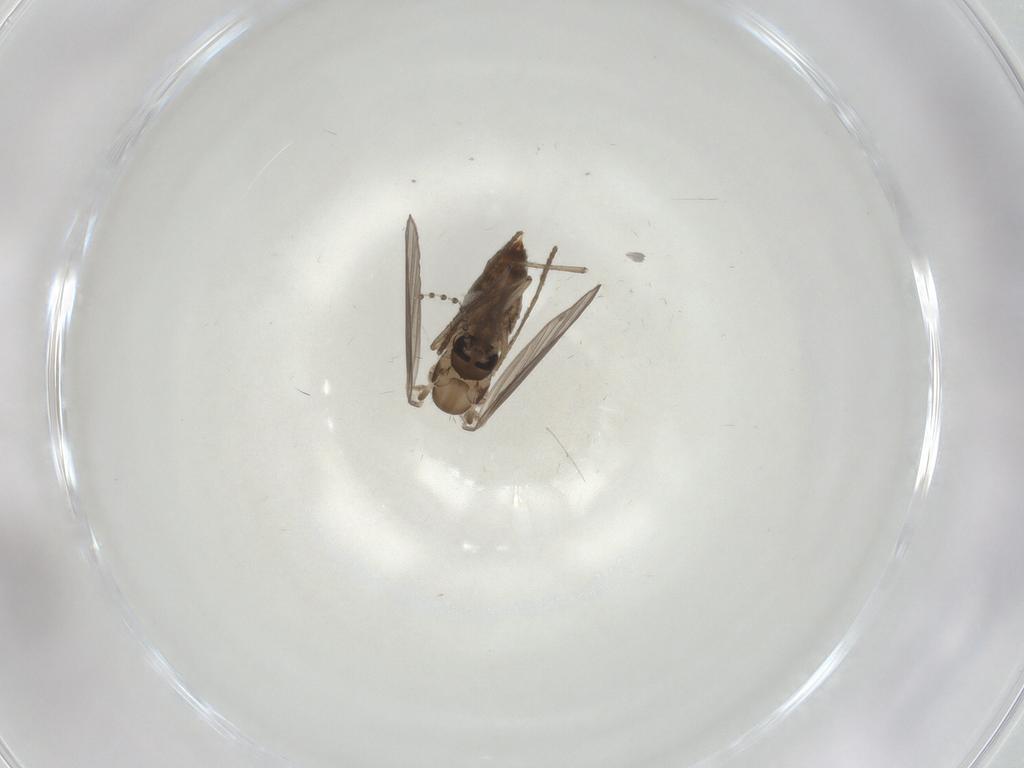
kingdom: Animalia
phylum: Arthropoda
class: Insecta
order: Diptera
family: Psychodidae
